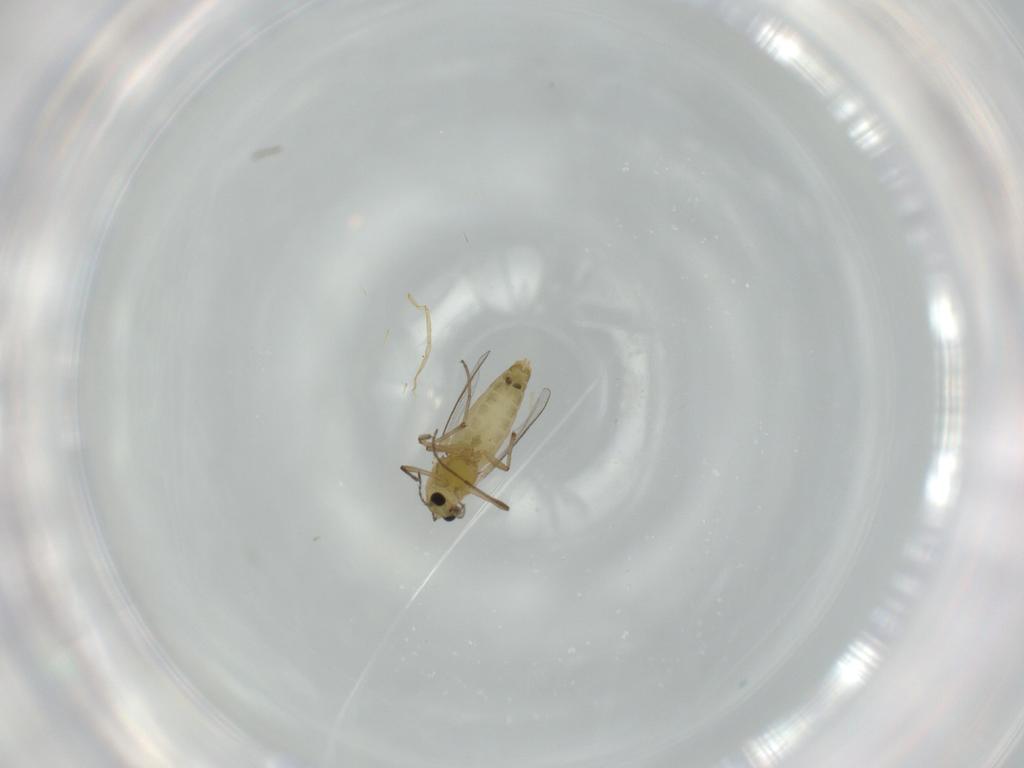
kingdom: Animalia
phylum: Arthropoda
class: Insecta
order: Diptera
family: Chironomidae
